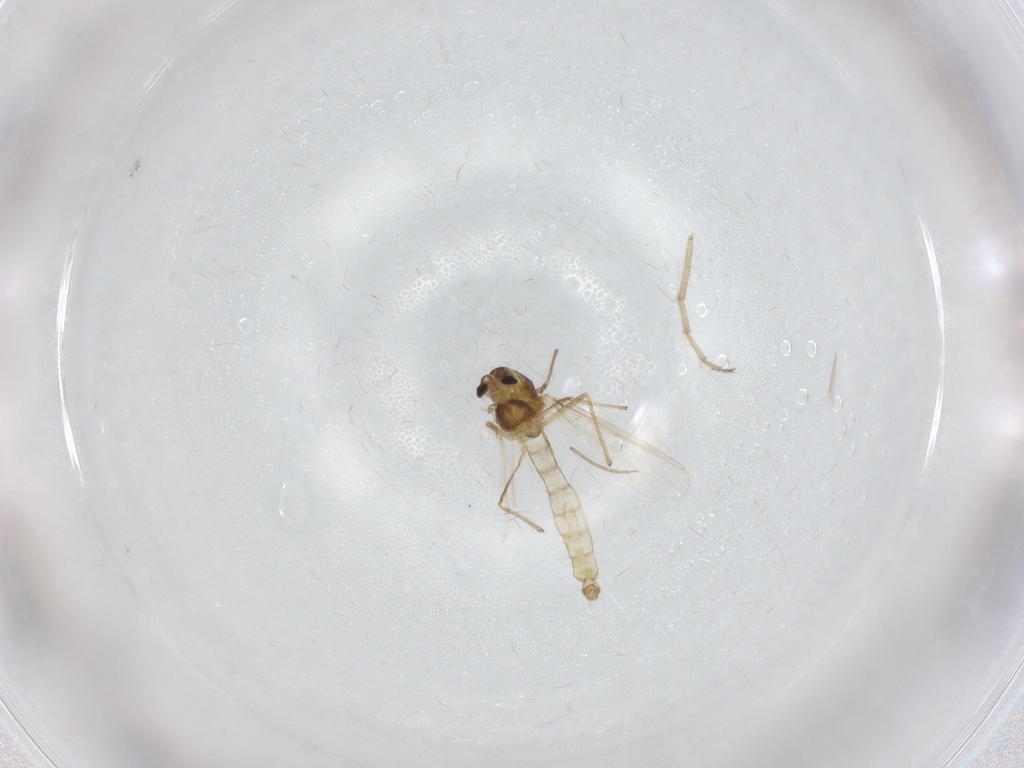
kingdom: Animalia
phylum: Arthropoda
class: Insecta
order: Diptera
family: Chironomidae
